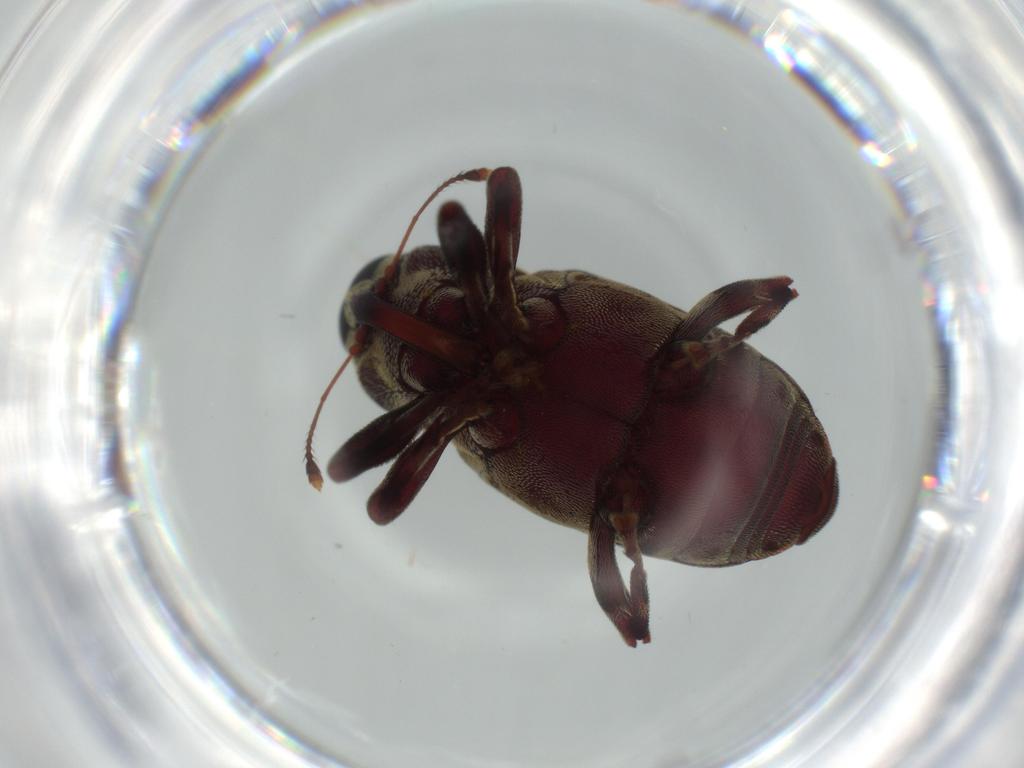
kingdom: Animalia
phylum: Arthropoda
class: Insecta
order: Coleoptera
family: Curculionidae
